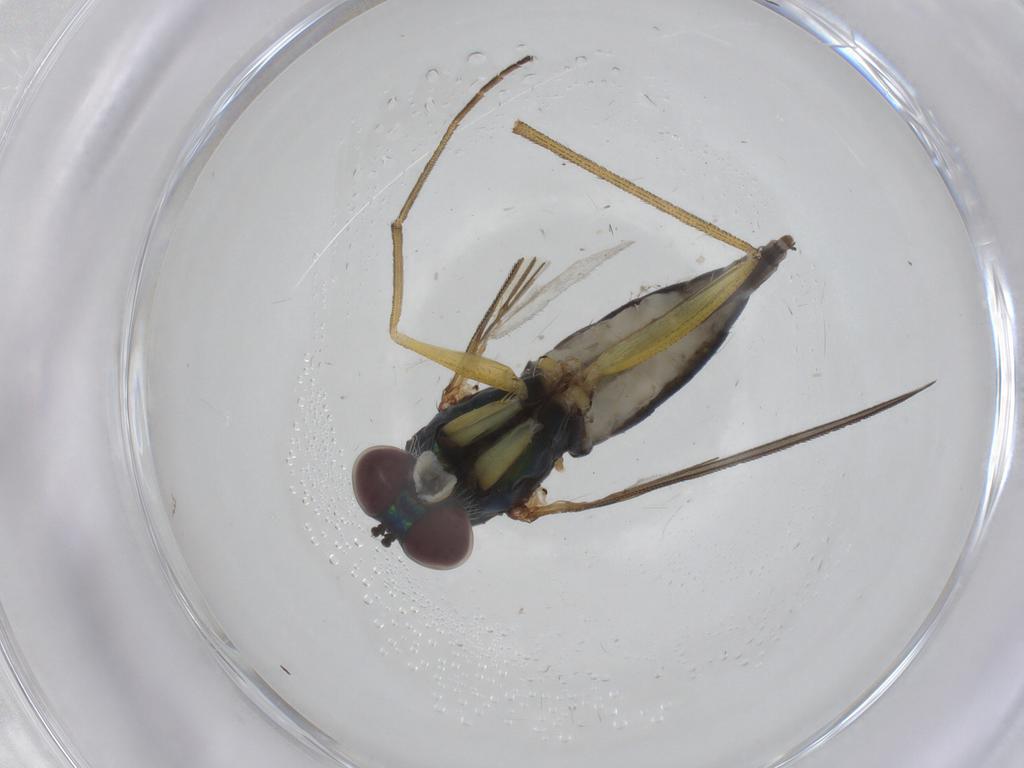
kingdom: Animalia
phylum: Arthropoda
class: Insecta
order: Diptera
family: Dolichopodidae
